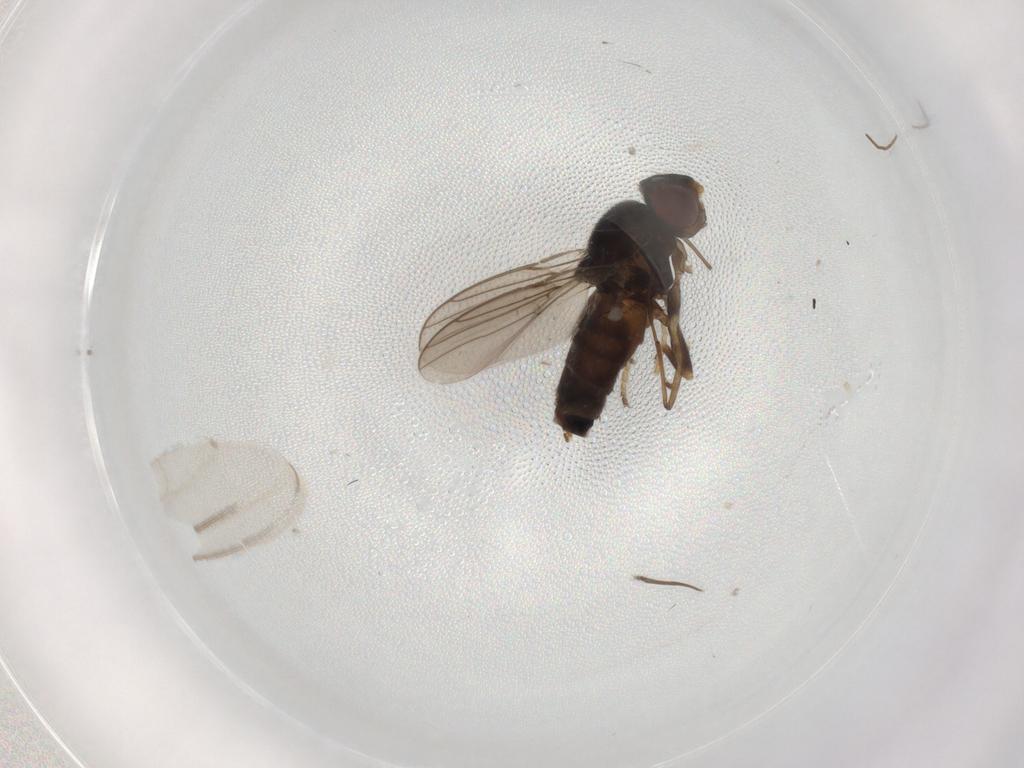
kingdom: Animalia
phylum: Arthropoda
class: Insecta
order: Diptera
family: Chloropidae
